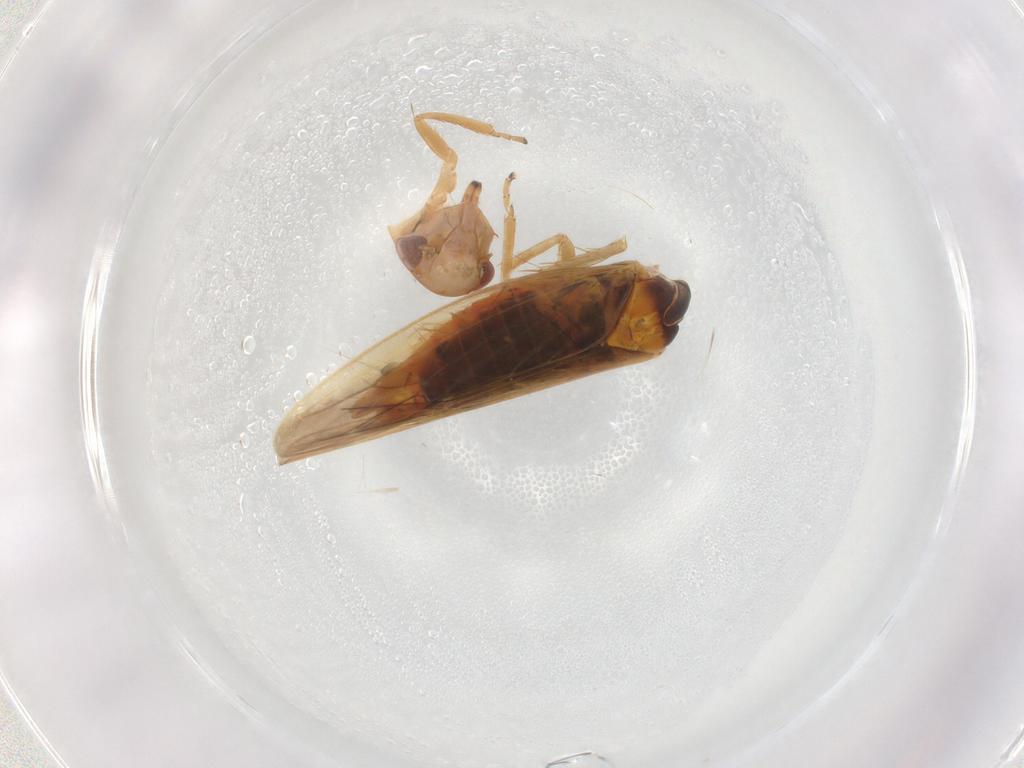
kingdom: Animalia
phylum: Arthropoda
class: Insecta
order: Hemiptera
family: Cicadellidae
